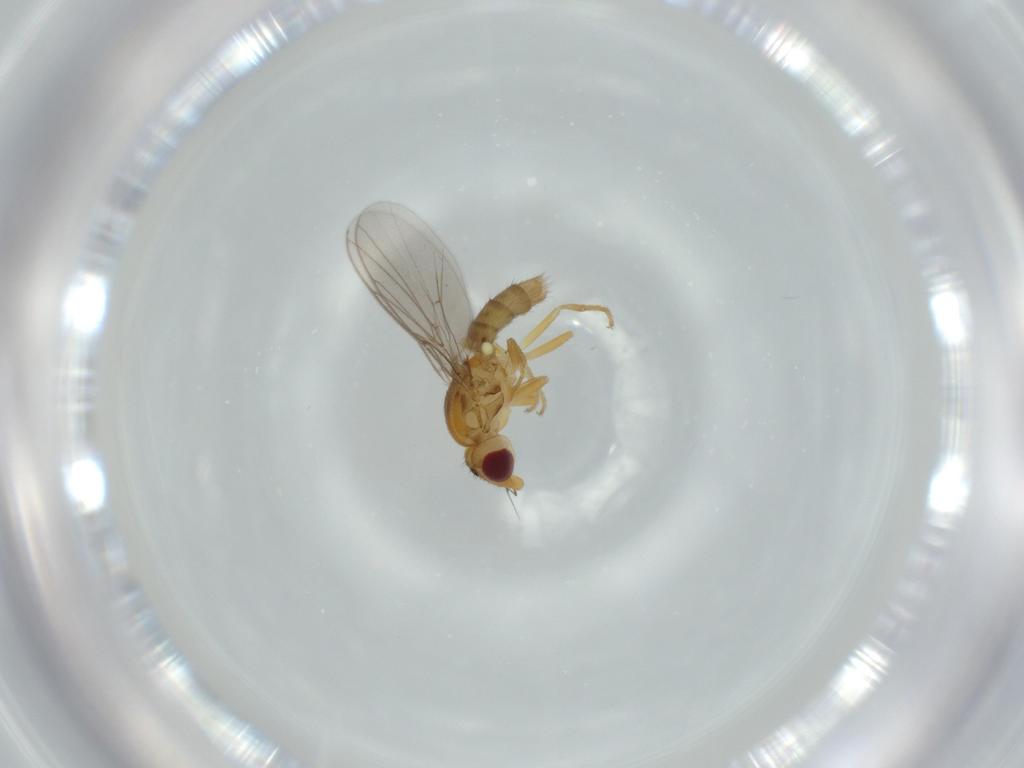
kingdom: Animalia
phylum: Arthropoda
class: Insecta
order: Diptera
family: Chloropidae
